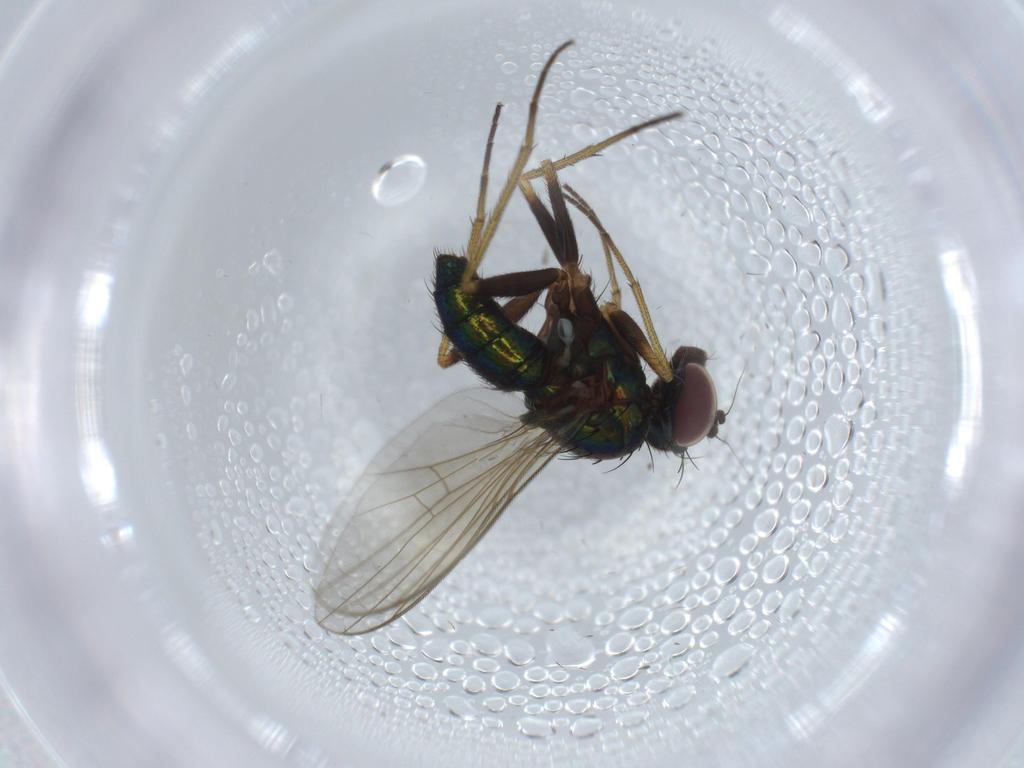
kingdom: Animalia
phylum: Arthropoda
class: Insecta
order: Diptera
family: Dolichopodidae
